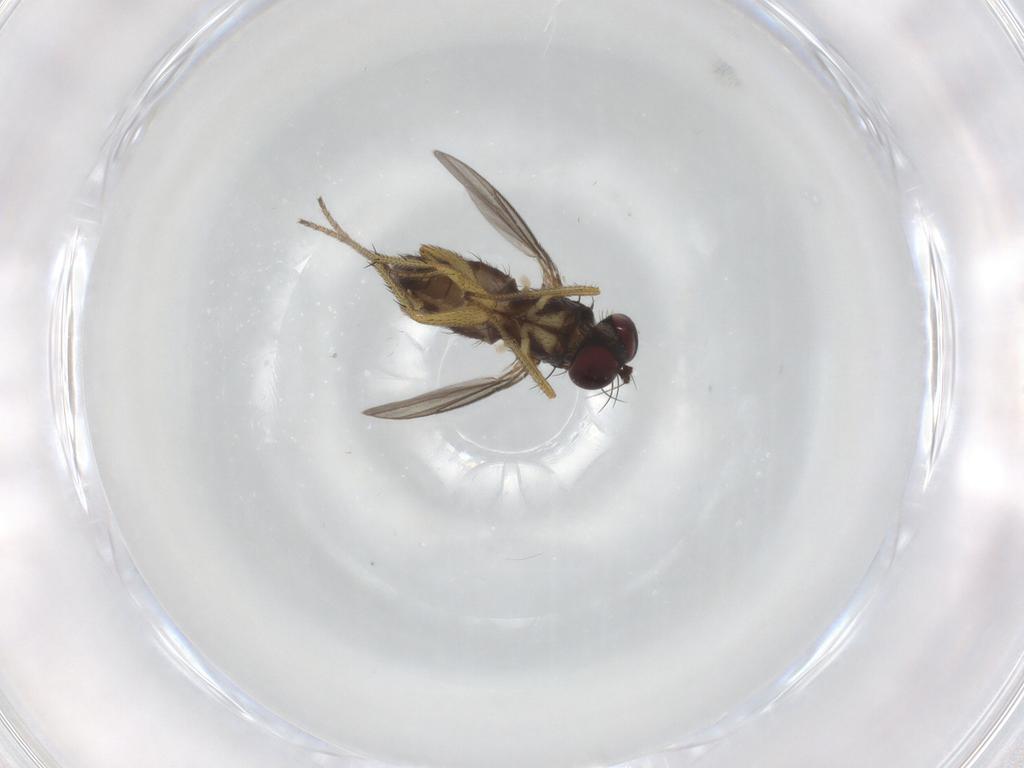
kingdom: Animalia
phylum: Arthropoda
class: Insecta
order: Diptera
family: Dolichopodidae
